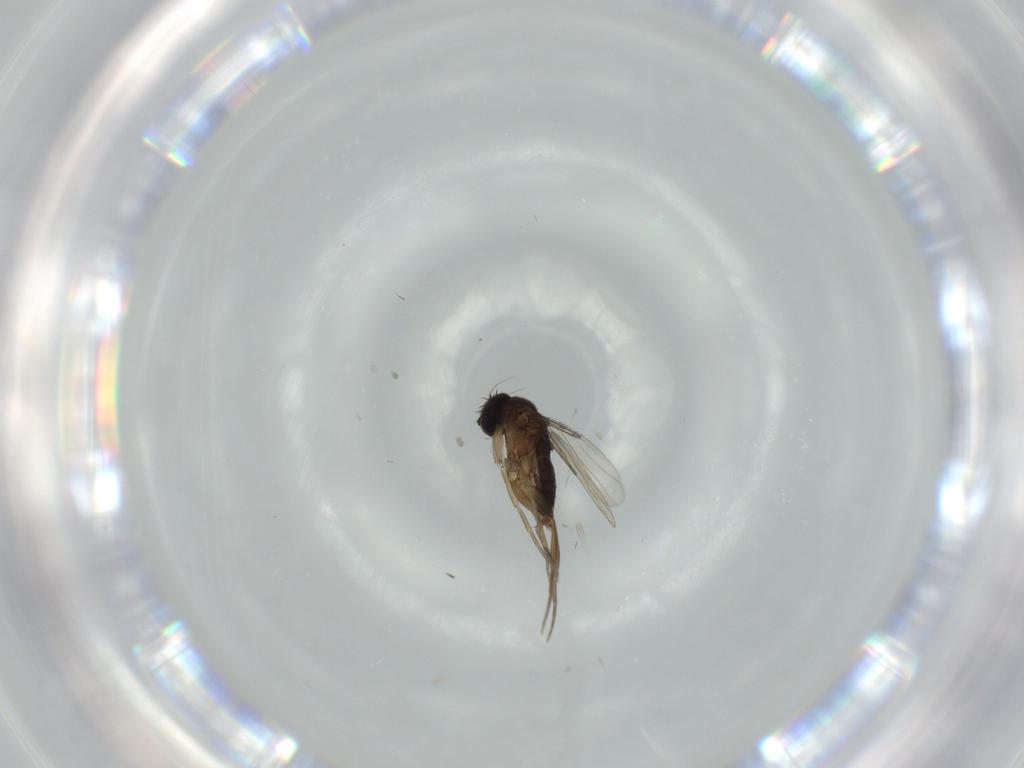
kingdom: Animalia
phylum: Arthropoda
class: Insecta
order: Diptera
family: Phoridae
